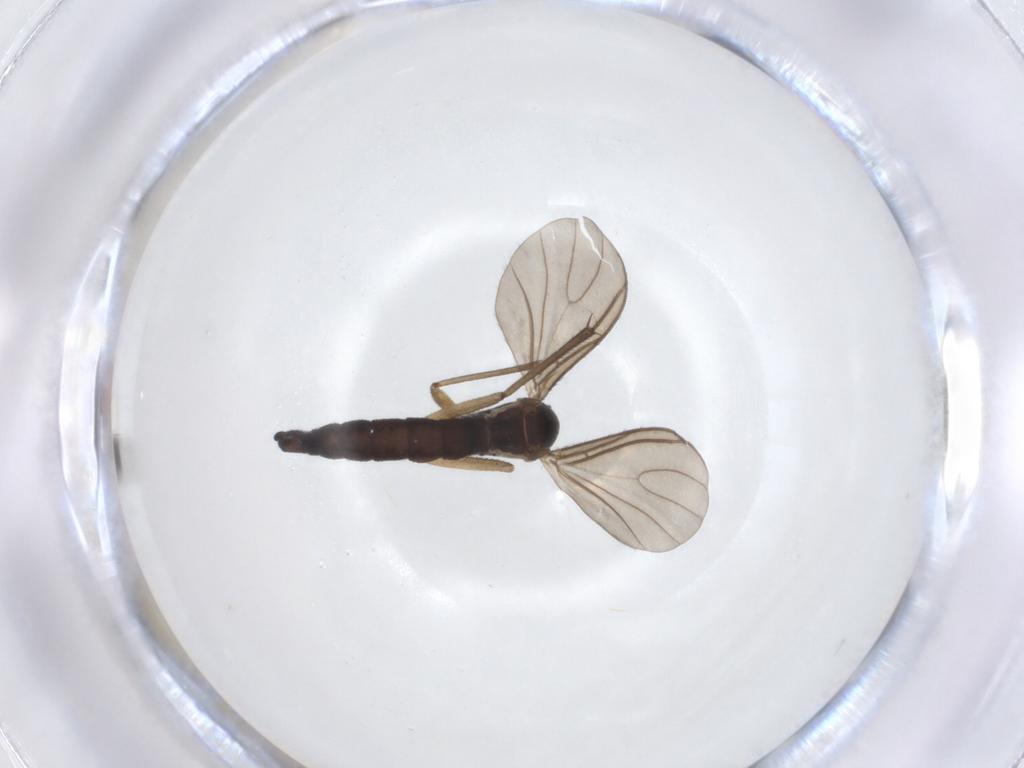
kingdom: Animalia
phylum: Arthropoda
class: Insecta
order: Diptera
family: Sciaridae
